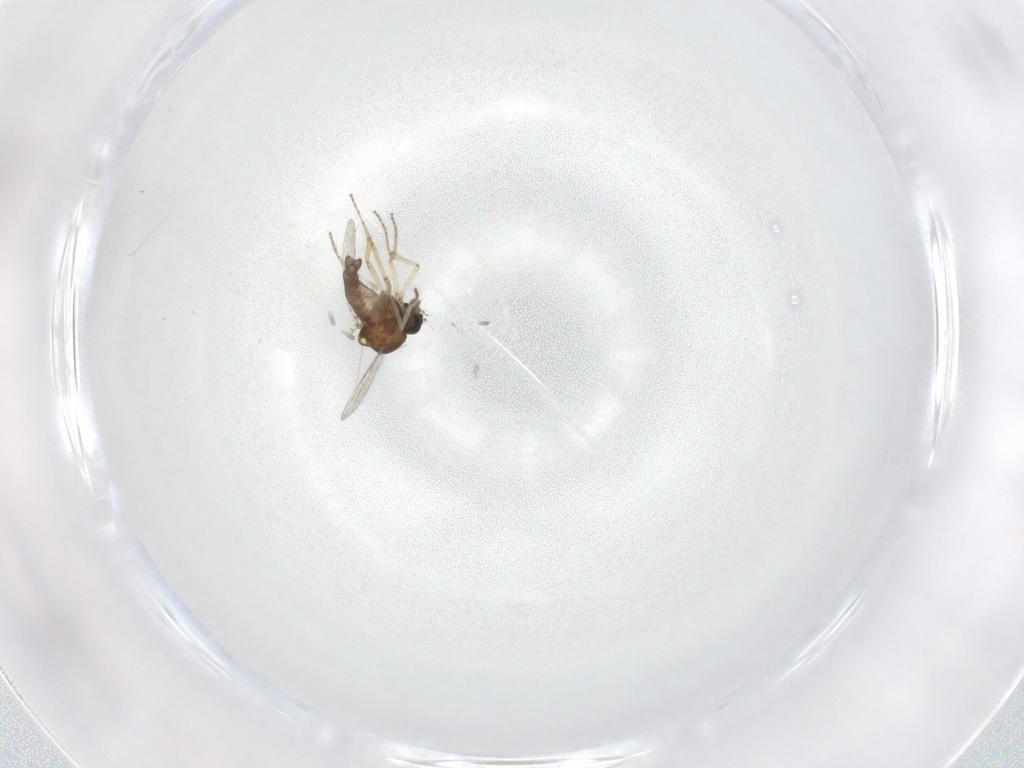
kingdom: Animalia
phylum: Arthropoda
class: Insecta
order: Diptera
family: Ceratopogonidae
